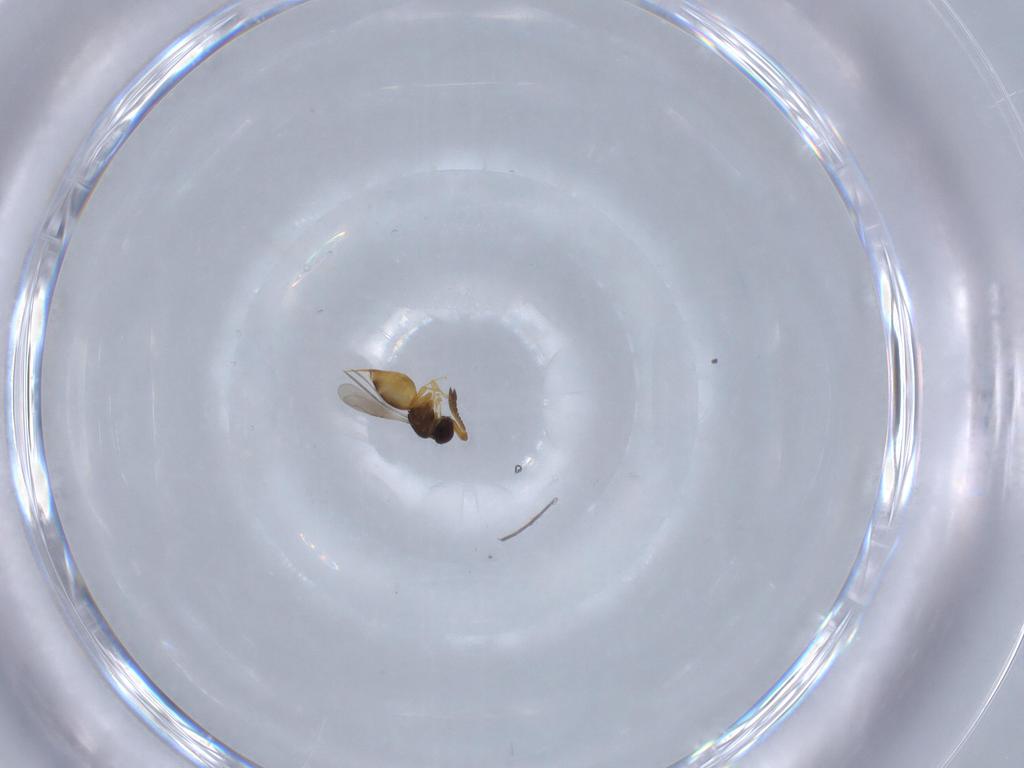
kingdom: Animalia
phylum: Arthropoda
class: Insecta
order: Hymenoptera
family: Ceraphronidae
